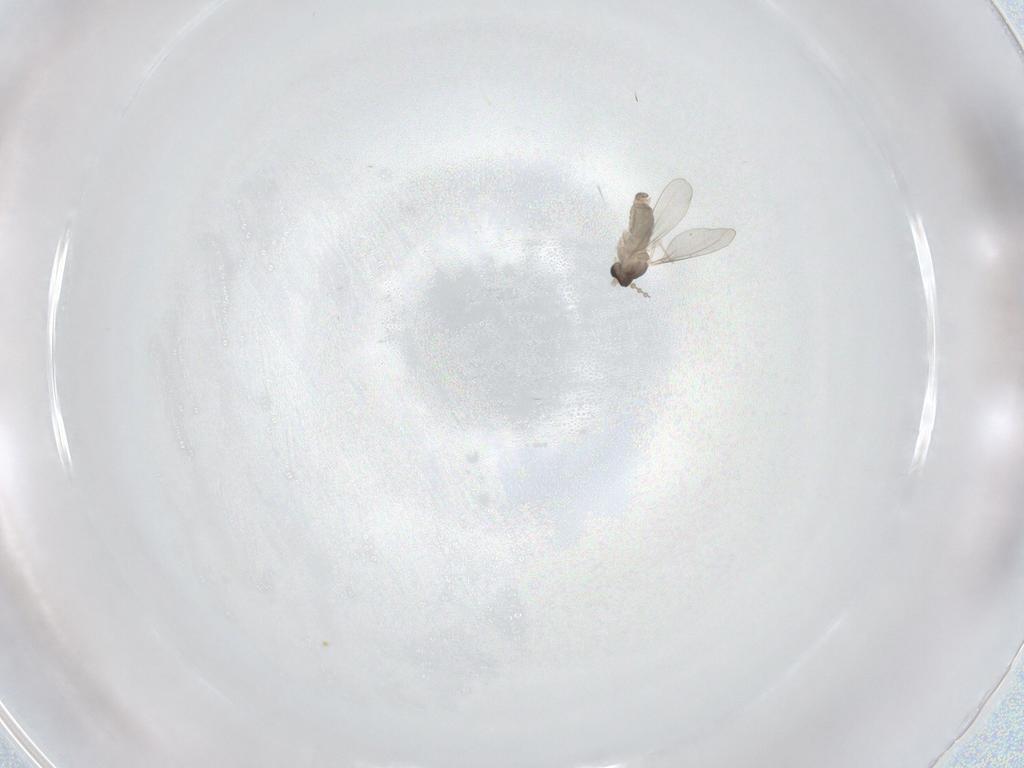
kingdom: Animalia
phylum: Arthropoda
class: Insecta
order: Diptera
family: Cecidomyiidae
